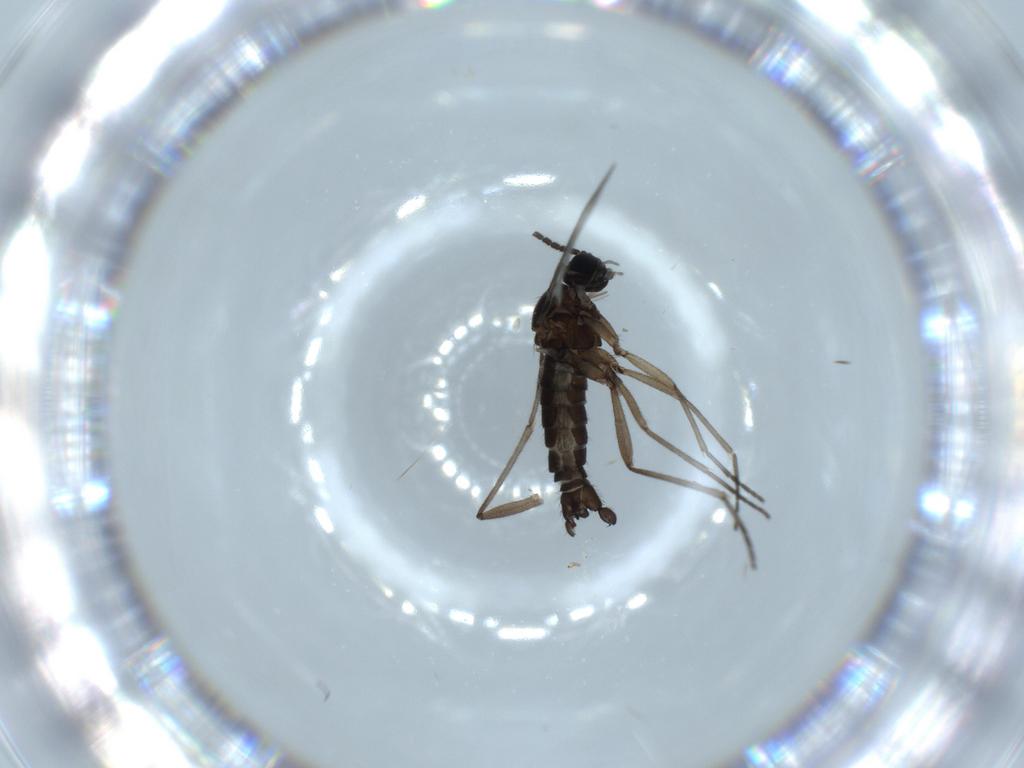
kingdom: Animalia
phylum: Arthropoda
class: Insecta
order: Diptera
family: Sciaridae
